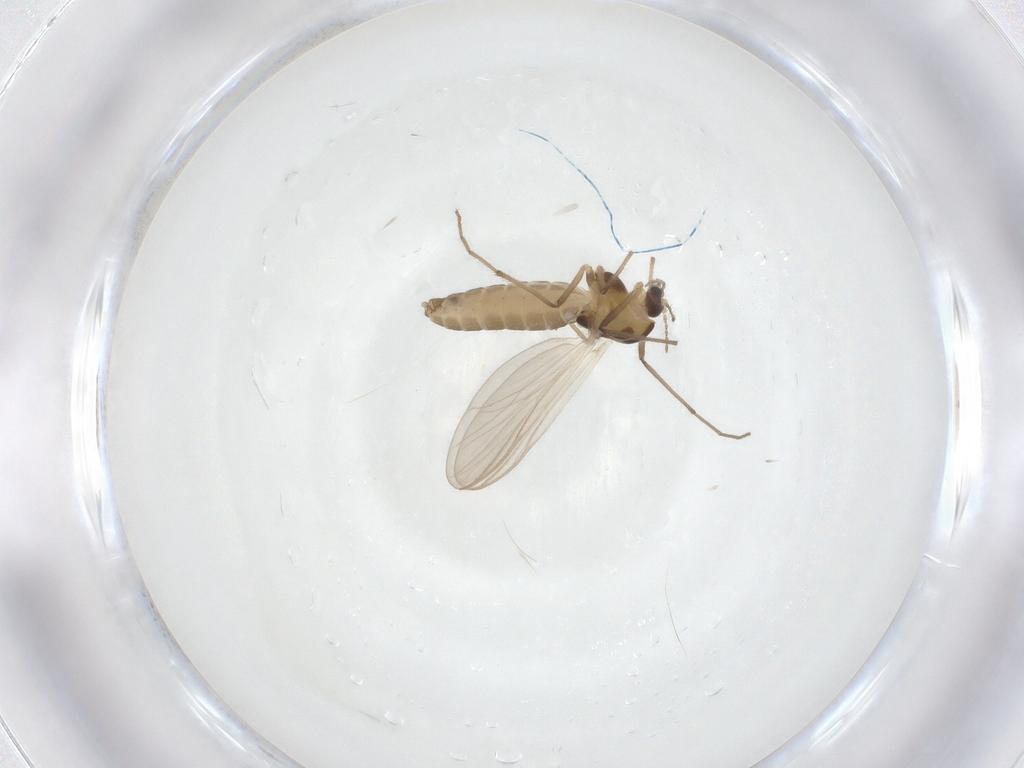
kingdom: Animalia
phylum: Arthropoda
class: Insecta
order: Diptera
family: Chironomidae
